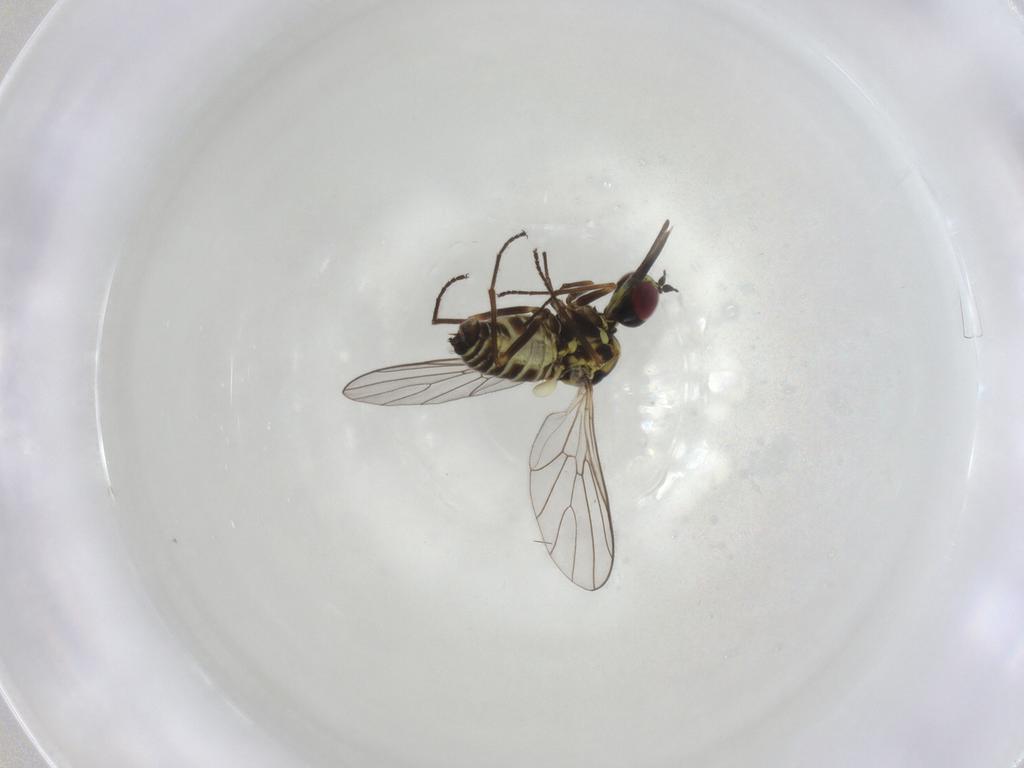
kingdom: Animalia
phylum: Arthropoda
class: Insecta
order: Diptera
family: Bombyliidae
